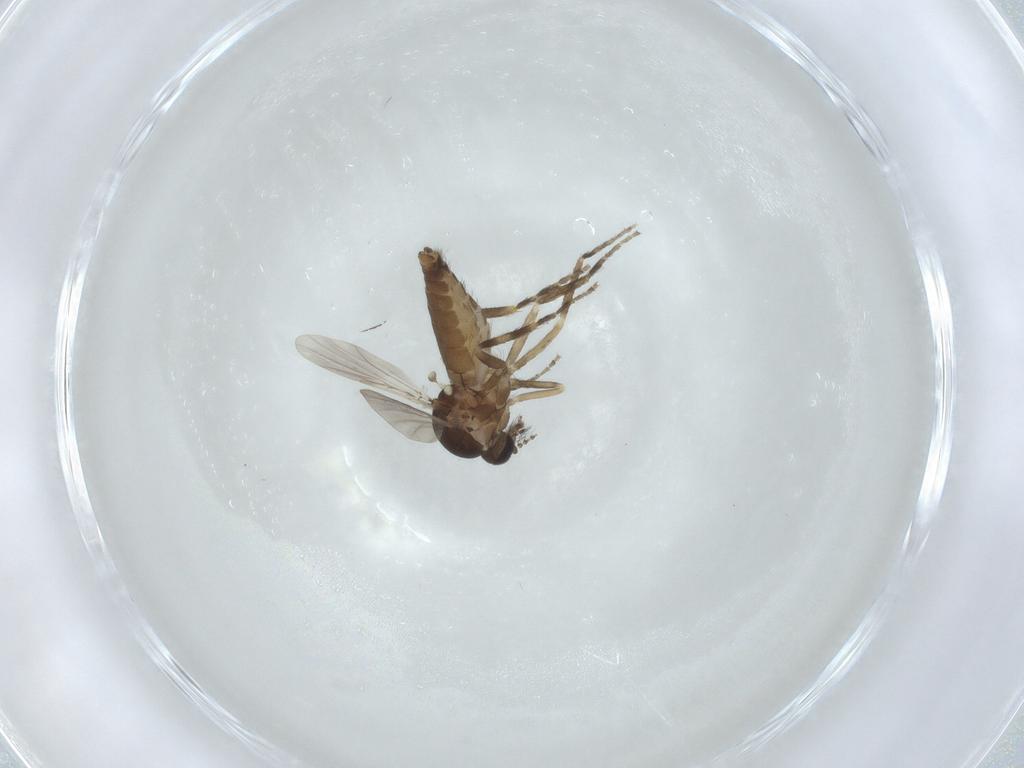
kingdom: Animalia
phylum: Arthropoda
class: Insecta
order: Diptera
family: Ceratopogonidae
